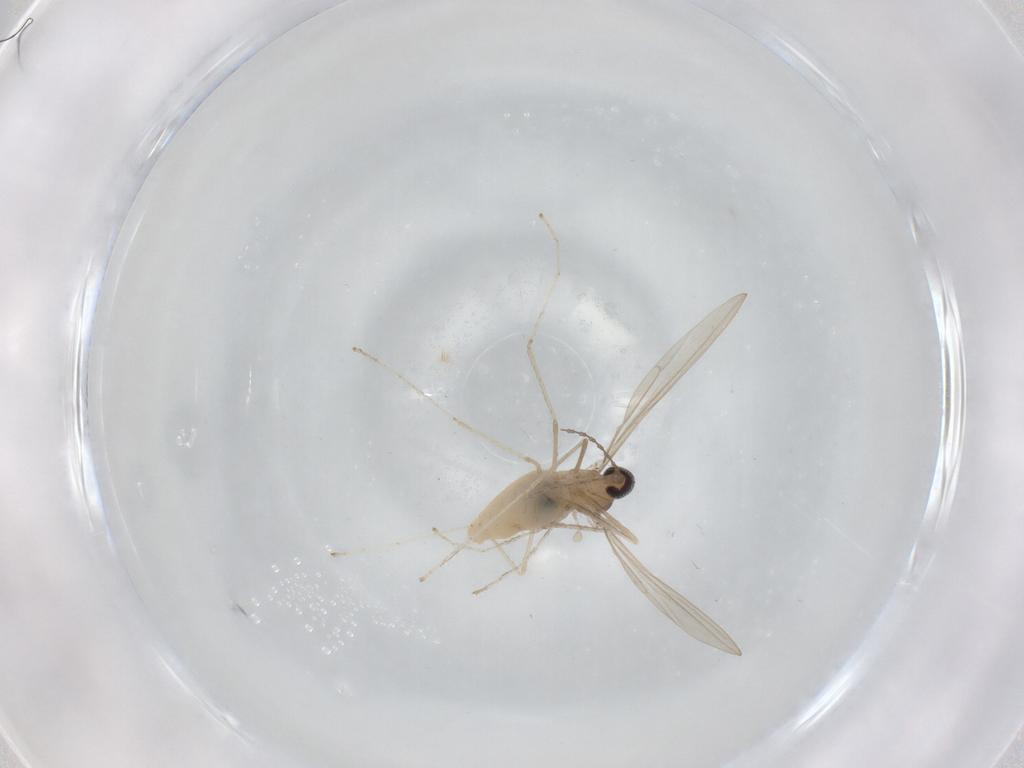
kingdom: Animalia
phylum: Arthropoda
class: Insecta
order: Diptera
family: Cecidomyiidae
